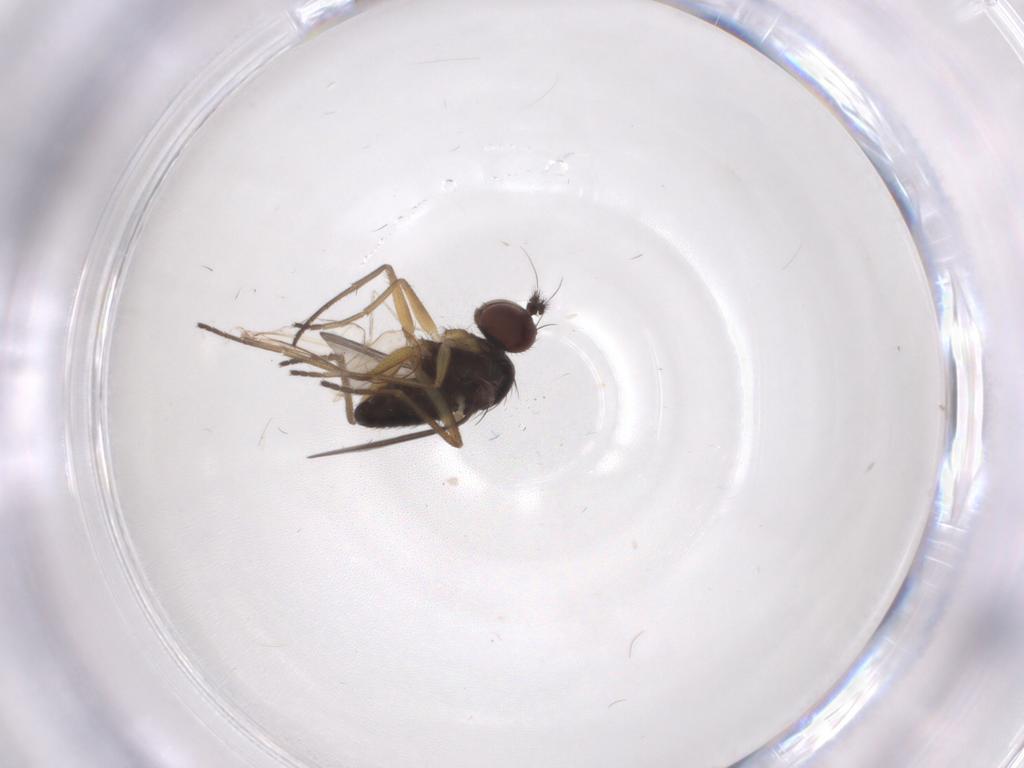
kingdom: Animalia
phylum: Arthropoda
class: Insecta
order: Diptera
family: Dolichopodidae
